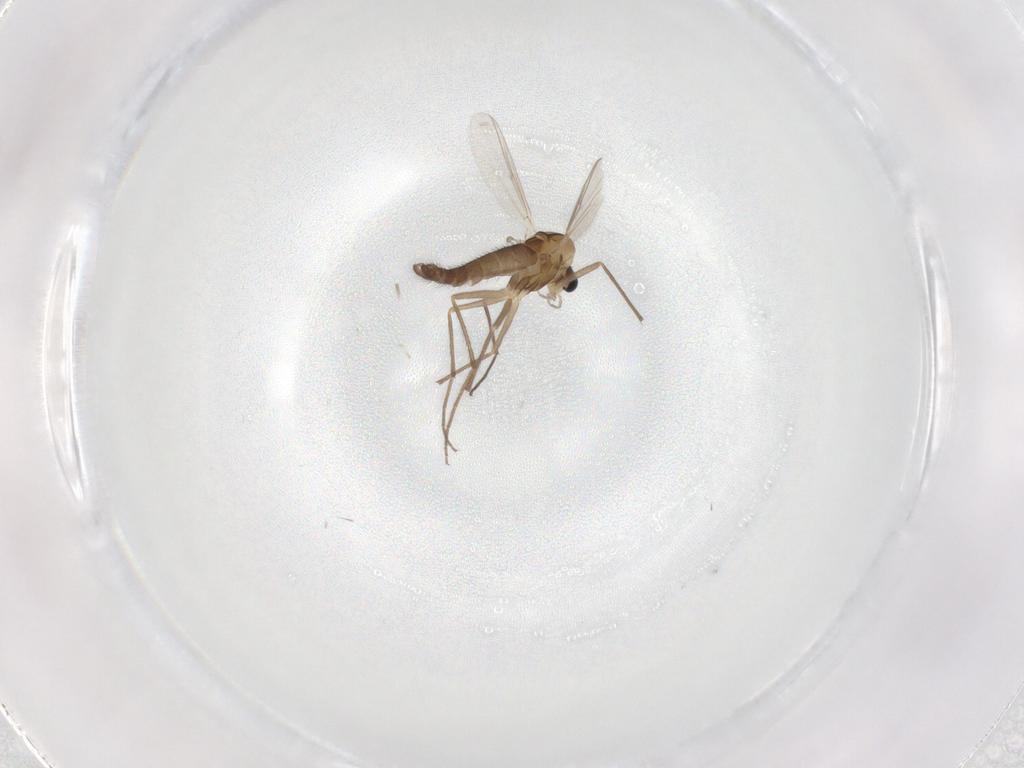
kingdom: Animalia
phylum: Arthropoda
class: Insecta
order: Diptera
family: Chironomidae
